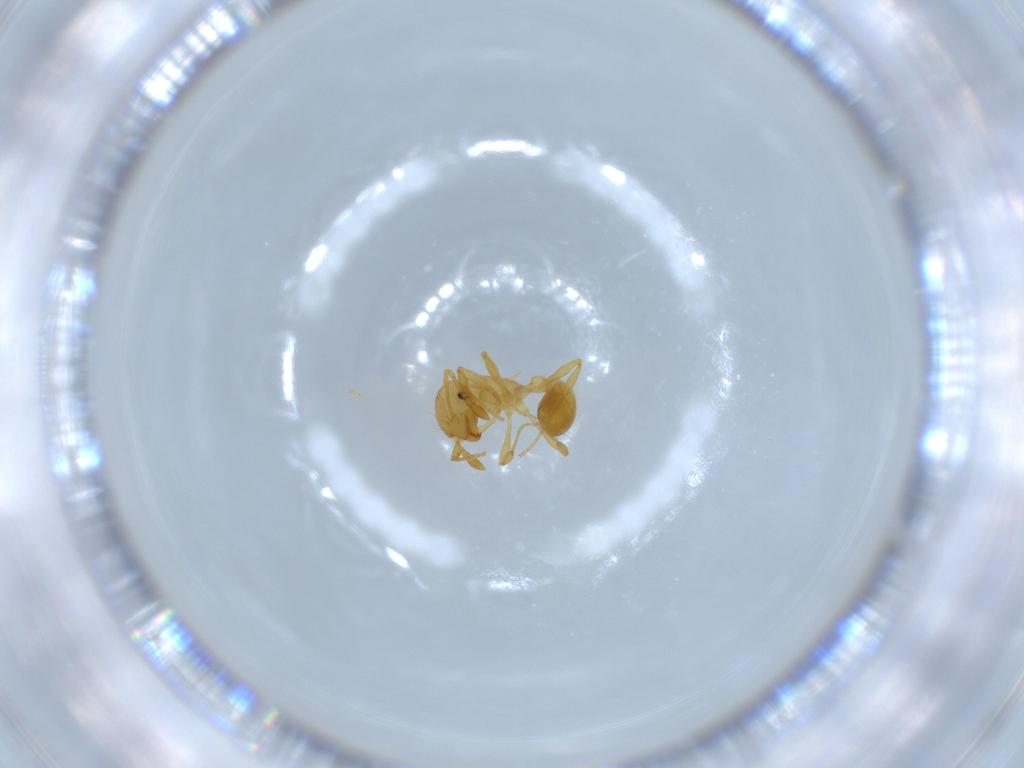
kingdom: Animalia
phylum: Arthropoda
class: Insecta
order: Hymenoptera
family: Formicidae
